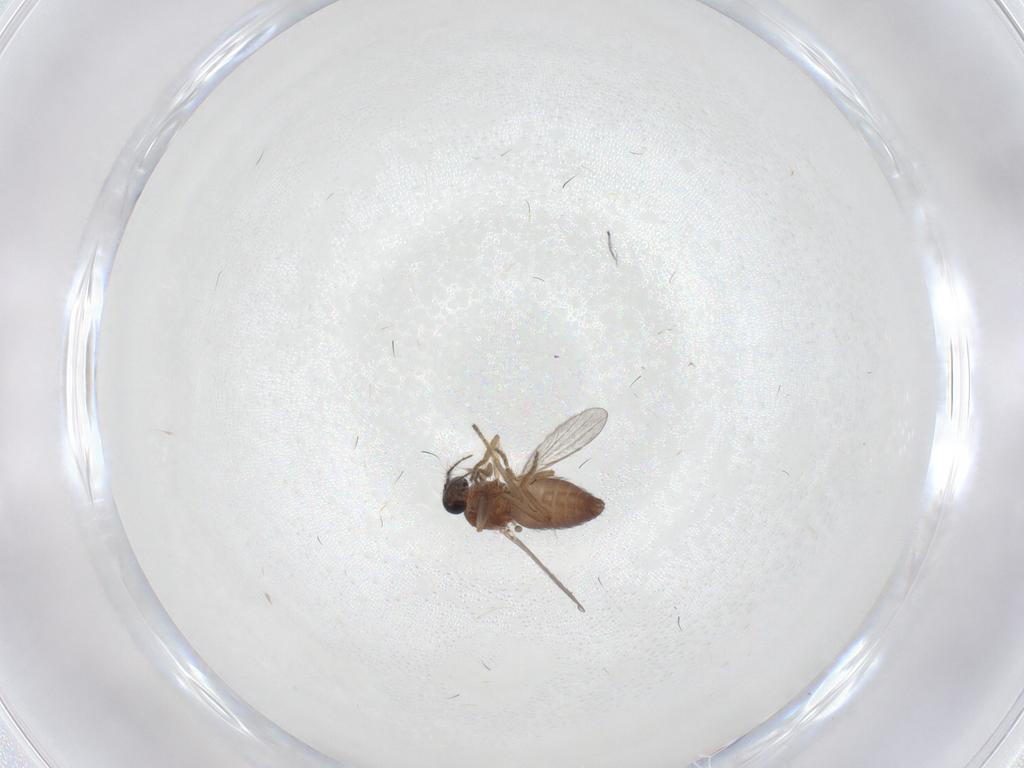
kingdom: Animalia
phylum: Arthropoda
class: Insecta
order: Diptera
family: Ceratopogonidae
